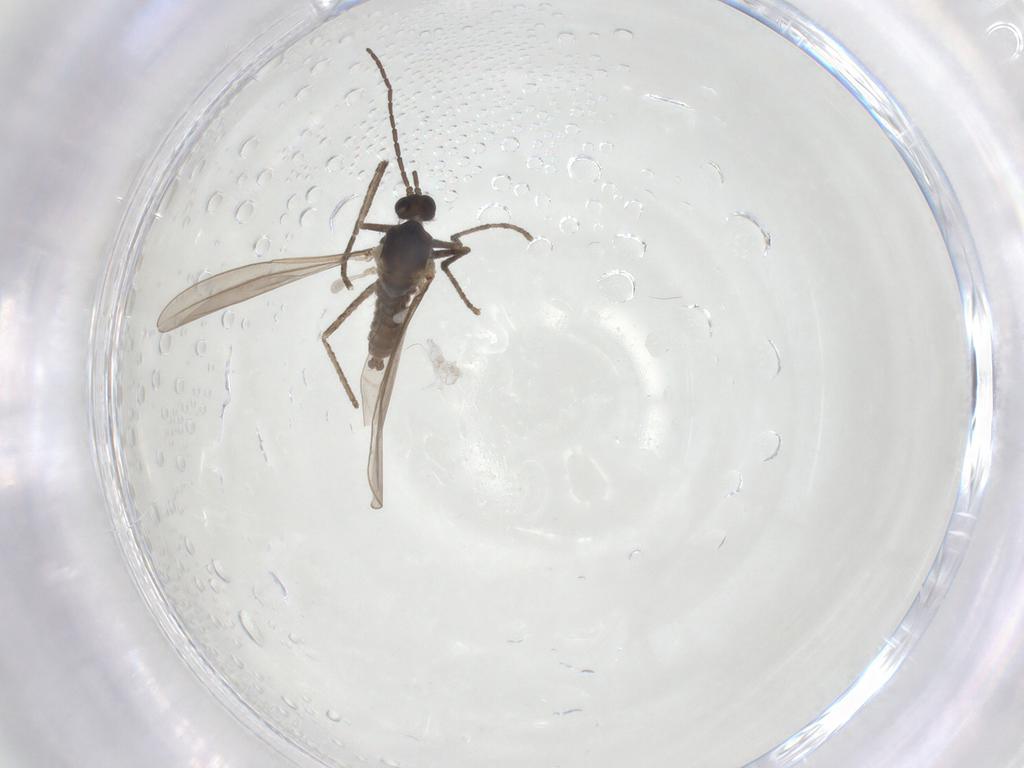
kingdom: Animalia
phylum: Arthropoda
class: Insecta
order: Diptera
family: Cecidomyiidae
